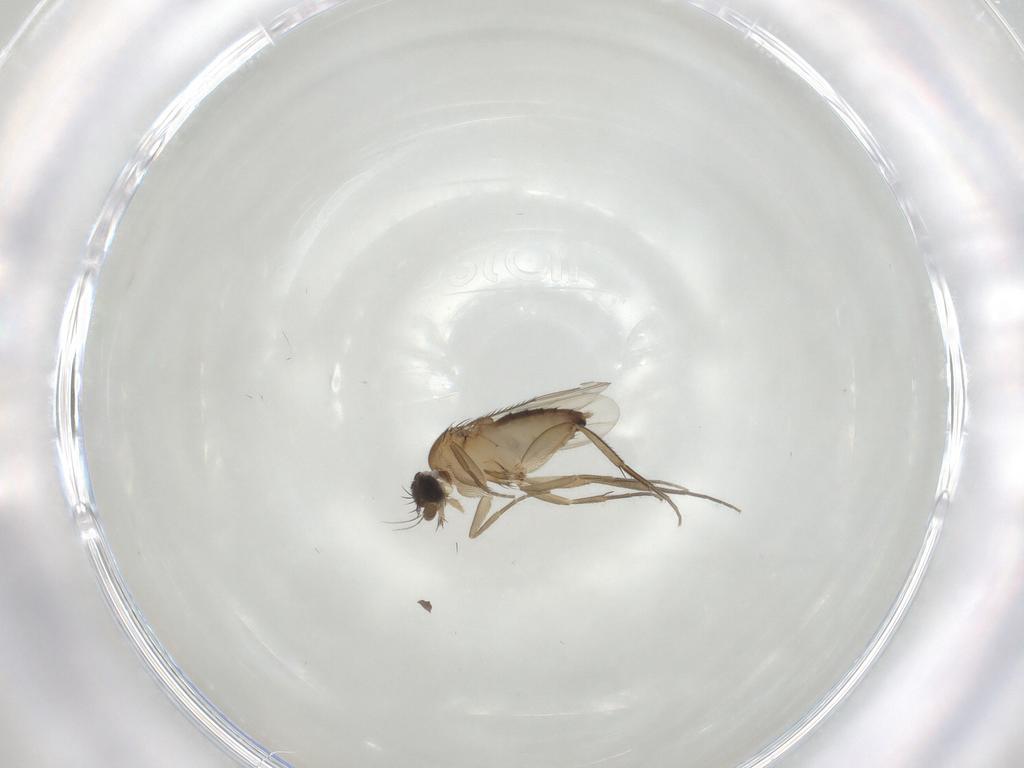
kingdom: Animalia
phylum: Arthropoda
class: Insecta
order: Diptera
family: Phoridae
